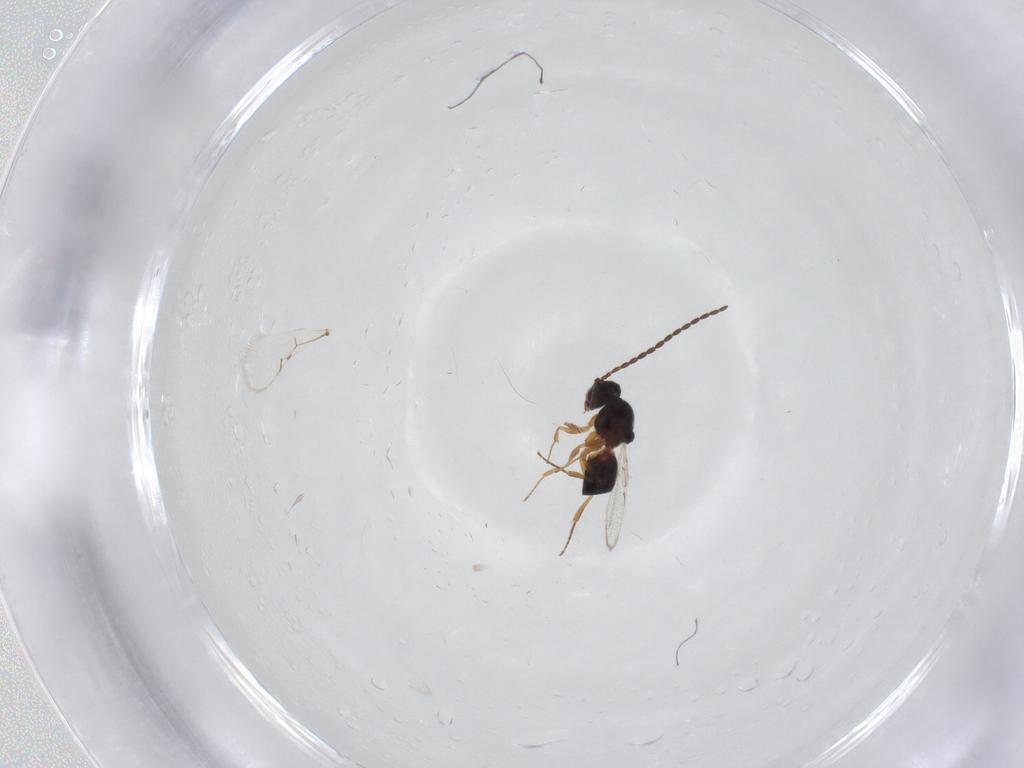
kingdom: Animalia
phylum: Arthropoda
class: Insecta
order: Hymenoptera
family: Figitidae
